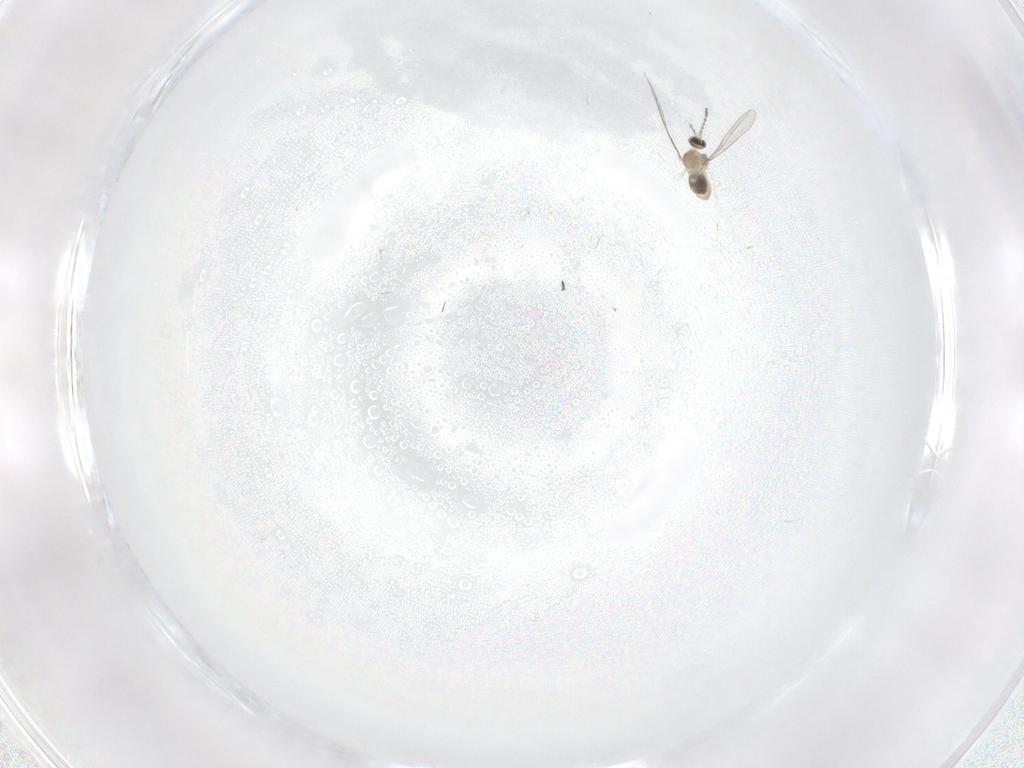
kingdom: Animalia
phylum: Arthropoda
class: Insecta
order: Diptera
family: Cecidomyiidae
